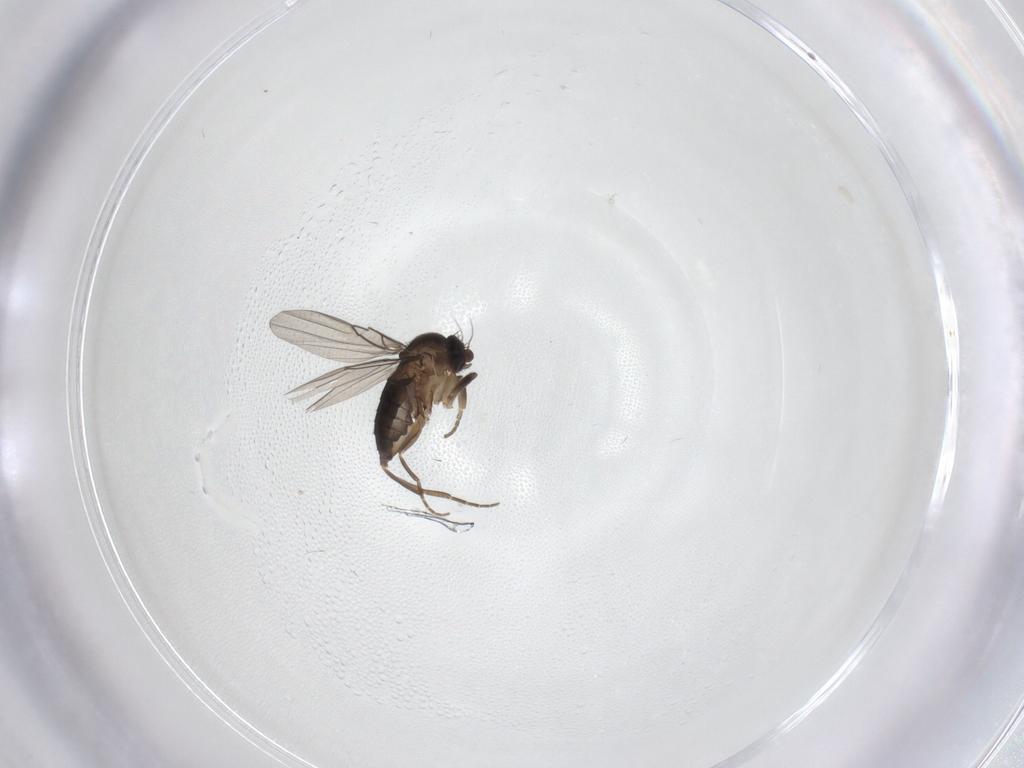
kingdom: Animalia
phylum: Arthropoda
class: Insecta
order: Diptera
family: Phoridae
